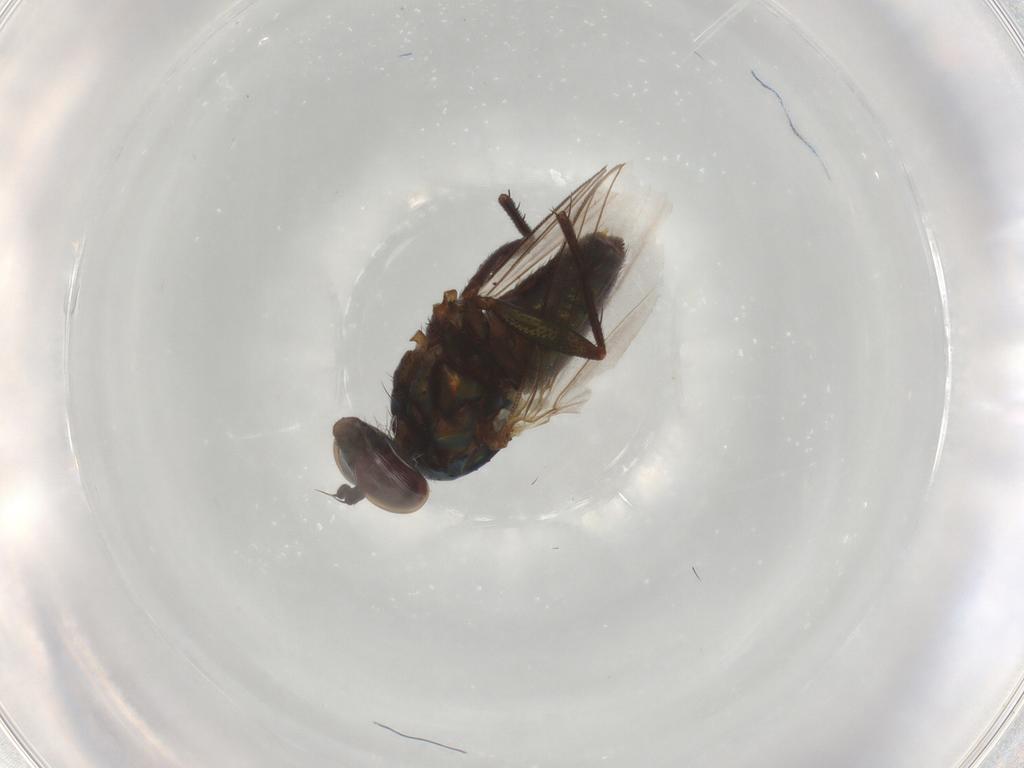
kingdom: Animalia
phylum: Arthropoda
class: Insecta
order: Diptera
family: Dolichopodidae
